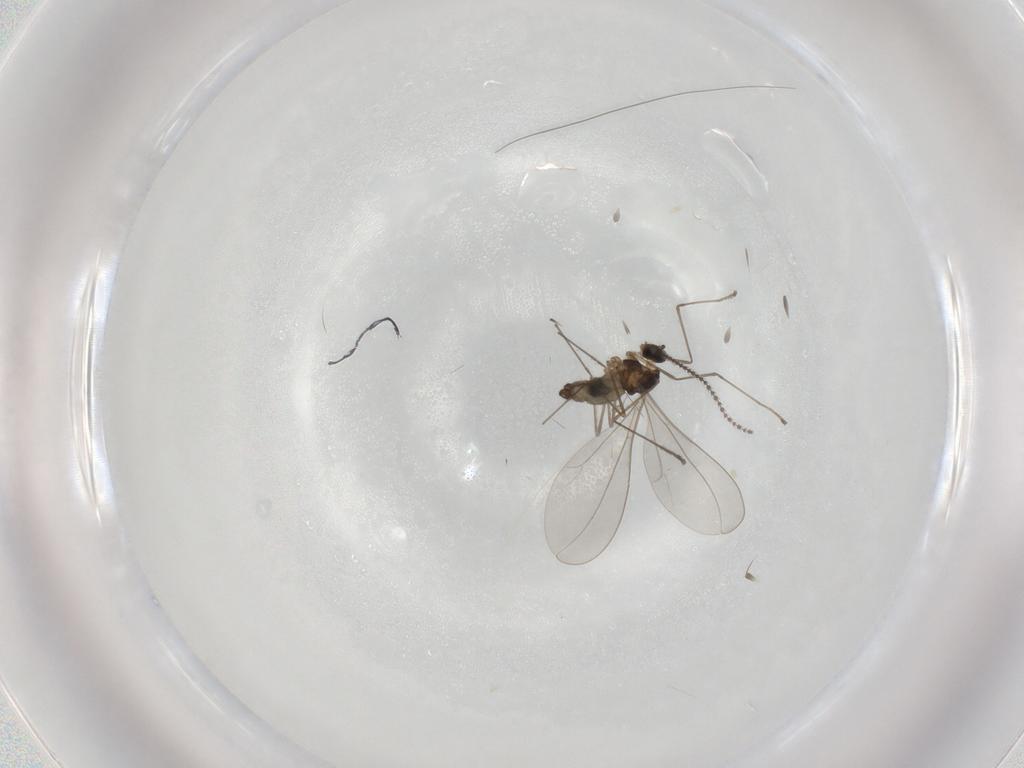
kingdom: Animalia
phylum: Arthropoda
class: Insecta
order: Diptera
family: Cecidomyiidae
